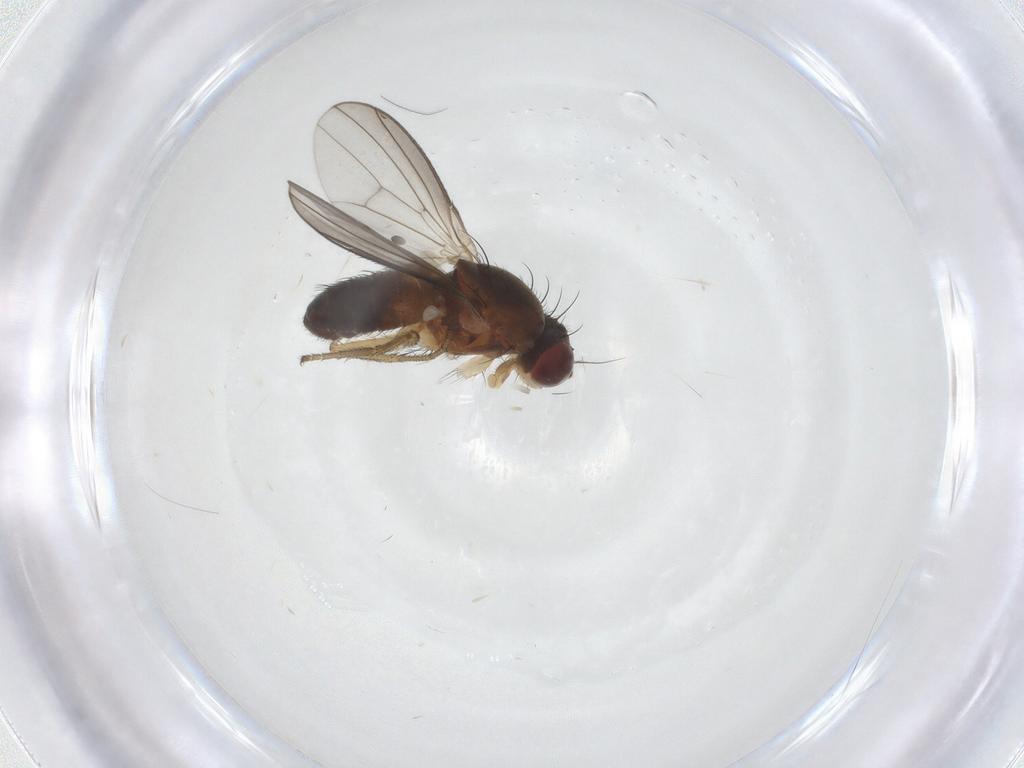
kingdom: Animalia
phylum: Arthropoda
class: Insecta
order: Diptera
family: Heleomyzidae
